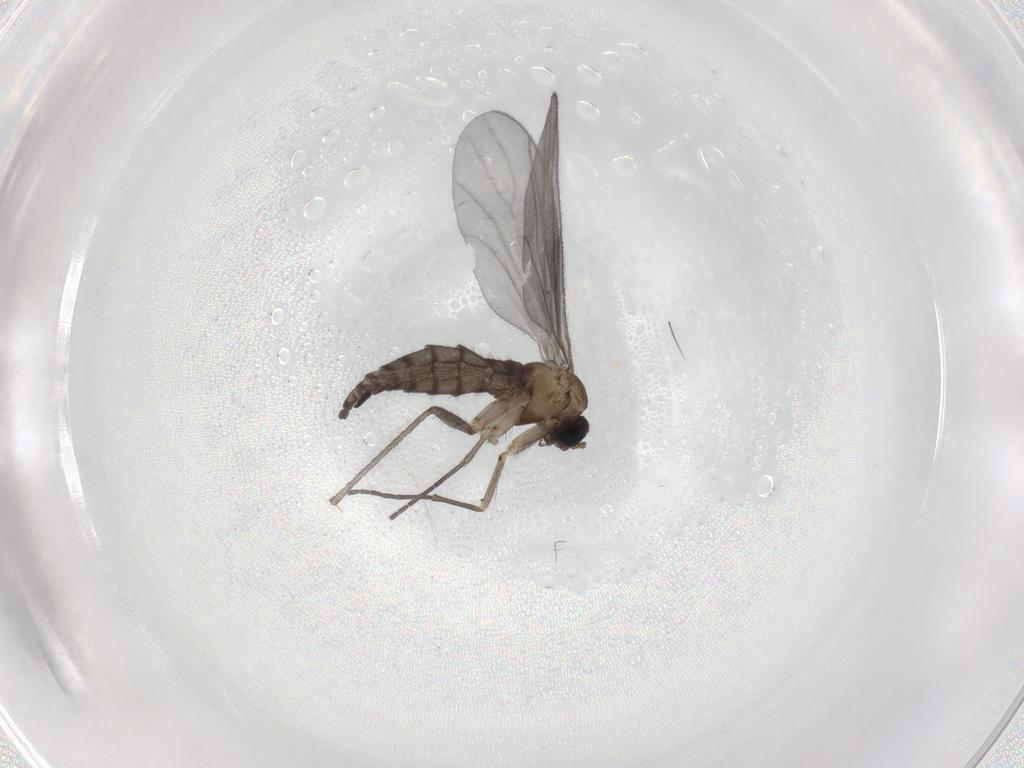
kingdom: Animalia
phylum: Arthropoda
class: Insecta
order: Diptera
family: Sciaridae
